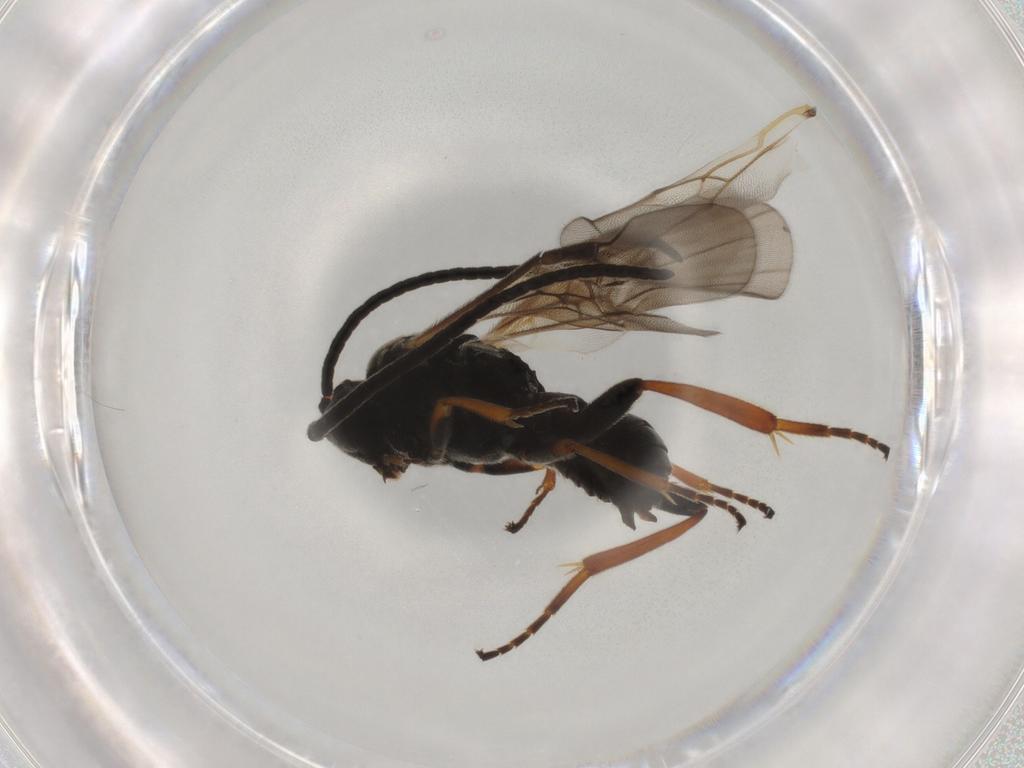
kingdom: Animalia
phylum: Arthropoda
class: Insecta
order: Hymenoptera
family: Braconidae
